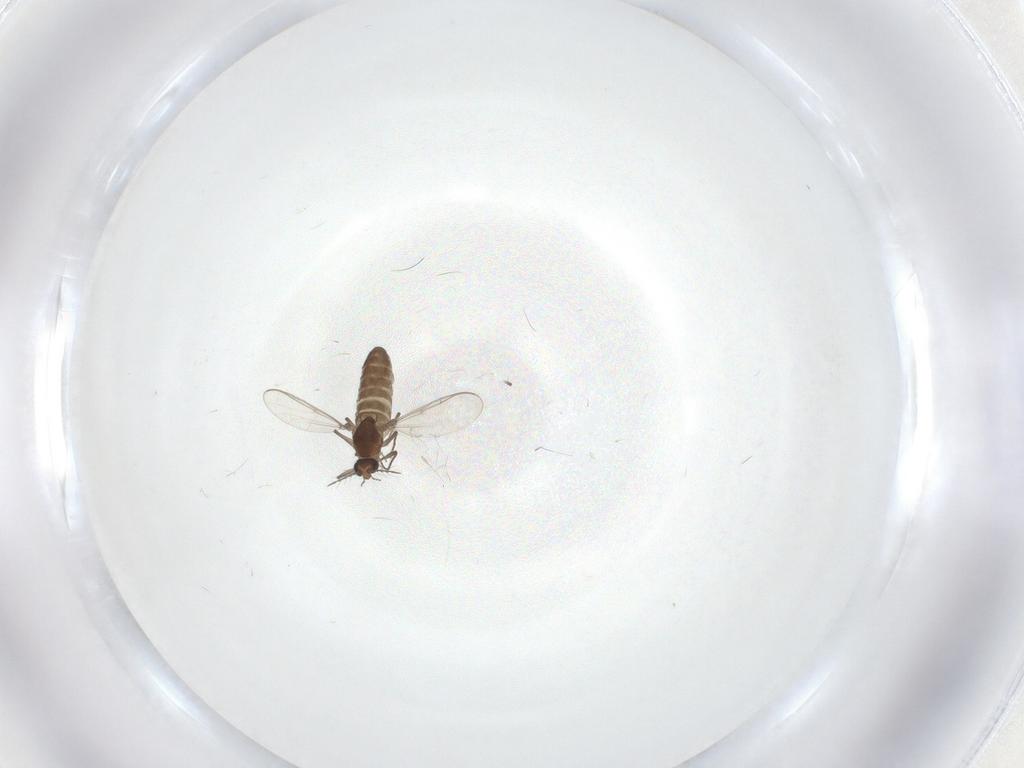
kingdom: Animalia
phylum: Arthropoda
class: Insecta
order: Diptera
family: Chironomidae
